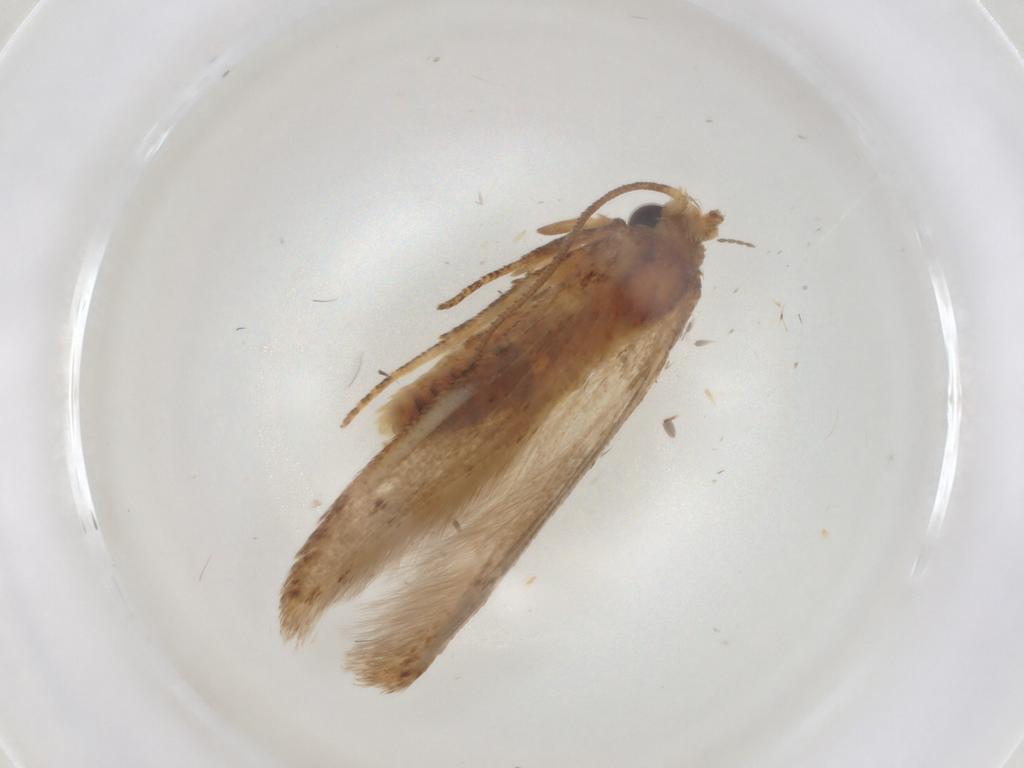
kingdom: Animalia
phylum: Arthropoda
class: Insecta
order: Lepidoptera
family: Blastobasidae
